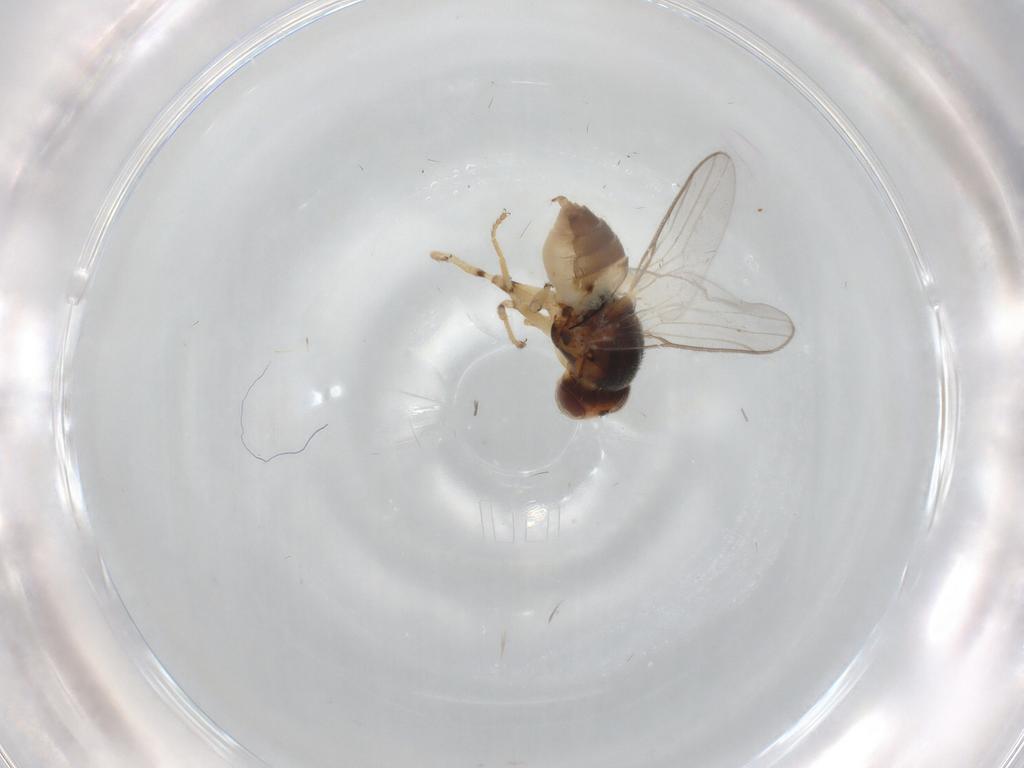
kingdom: Animalia
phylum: Arthropoda
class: Insecta
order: Diptera
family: Chloropidae
